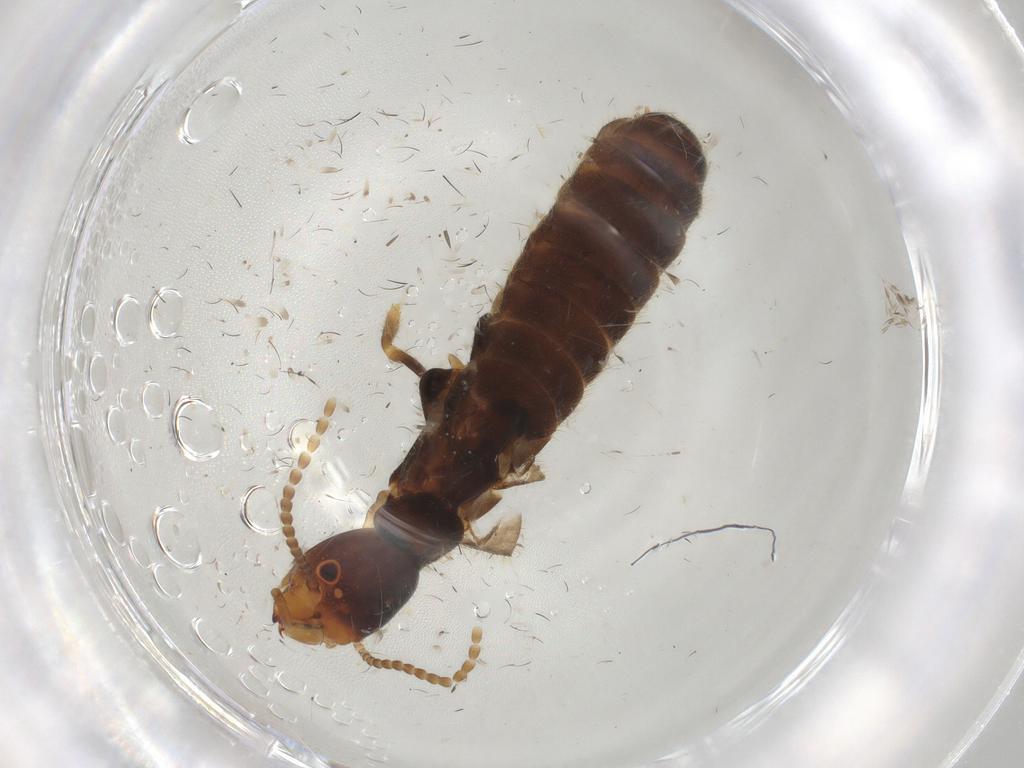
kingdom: Animalia
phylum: Arthropoda
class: Insecta
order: Blattodea
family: Rhinotermitidae
